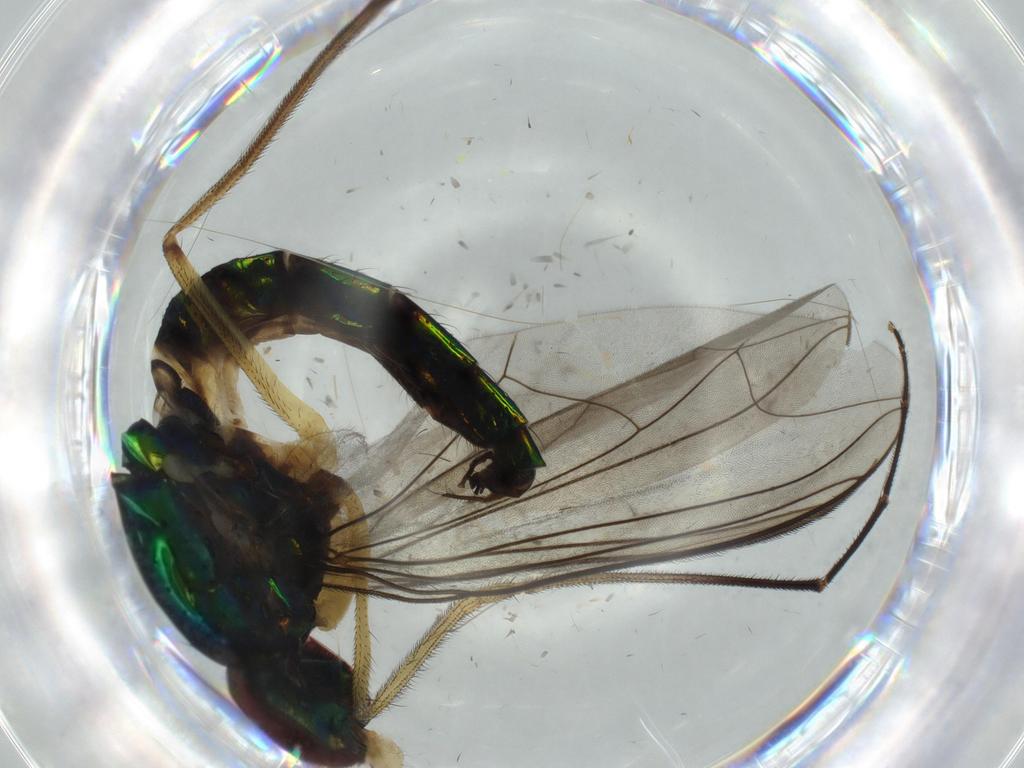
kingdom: Animalia
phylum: Arthropoda
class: Insecta
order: Diptera
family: Dolichopodidae
